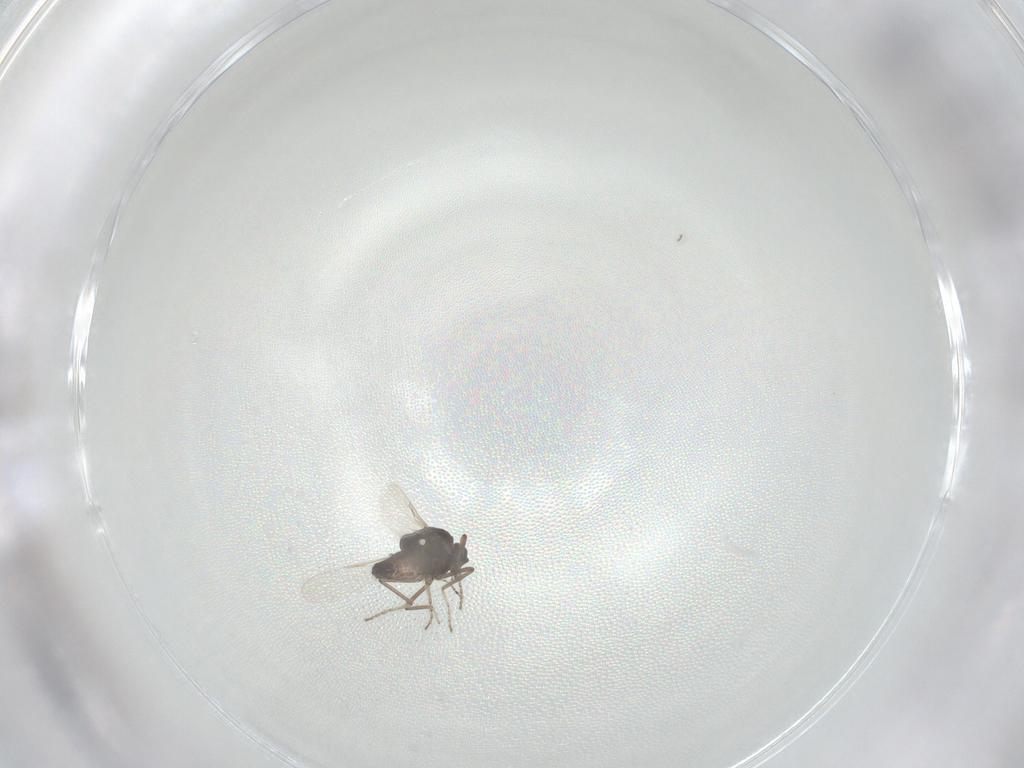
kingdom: Animalia
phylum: Arthropoda
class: Insecta
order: Diptera
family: Ceratopogonidae
